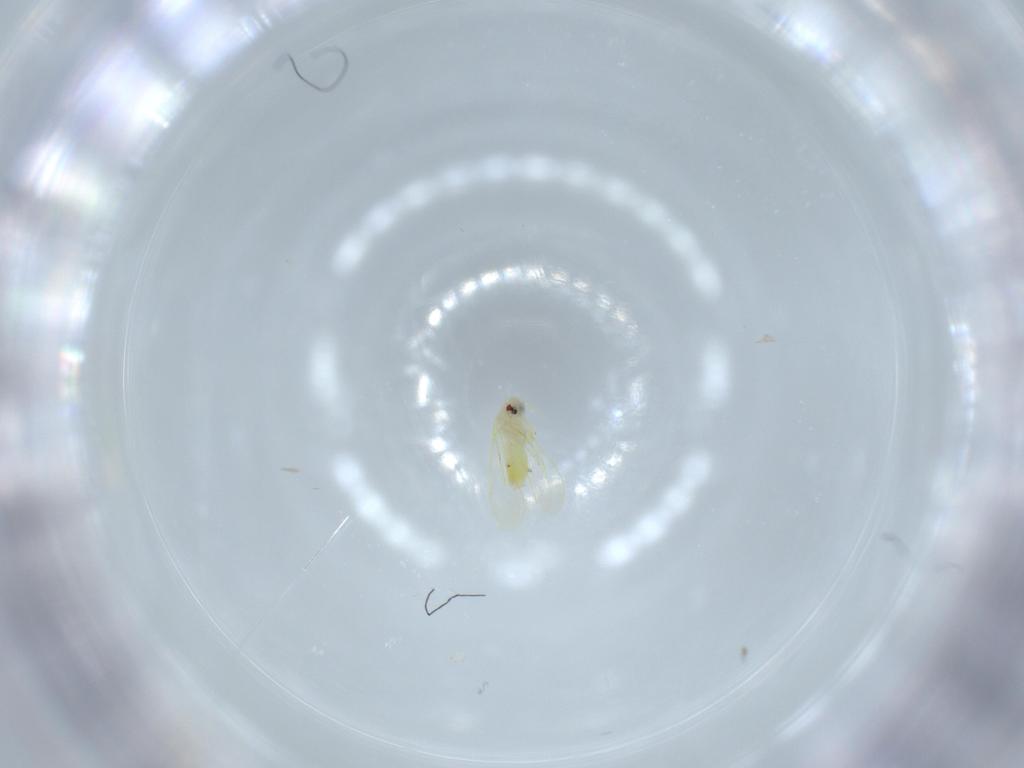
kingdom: Animalia
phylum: Arthropoda
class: Insecta
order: Hemiptera
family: Aleyrodidae
